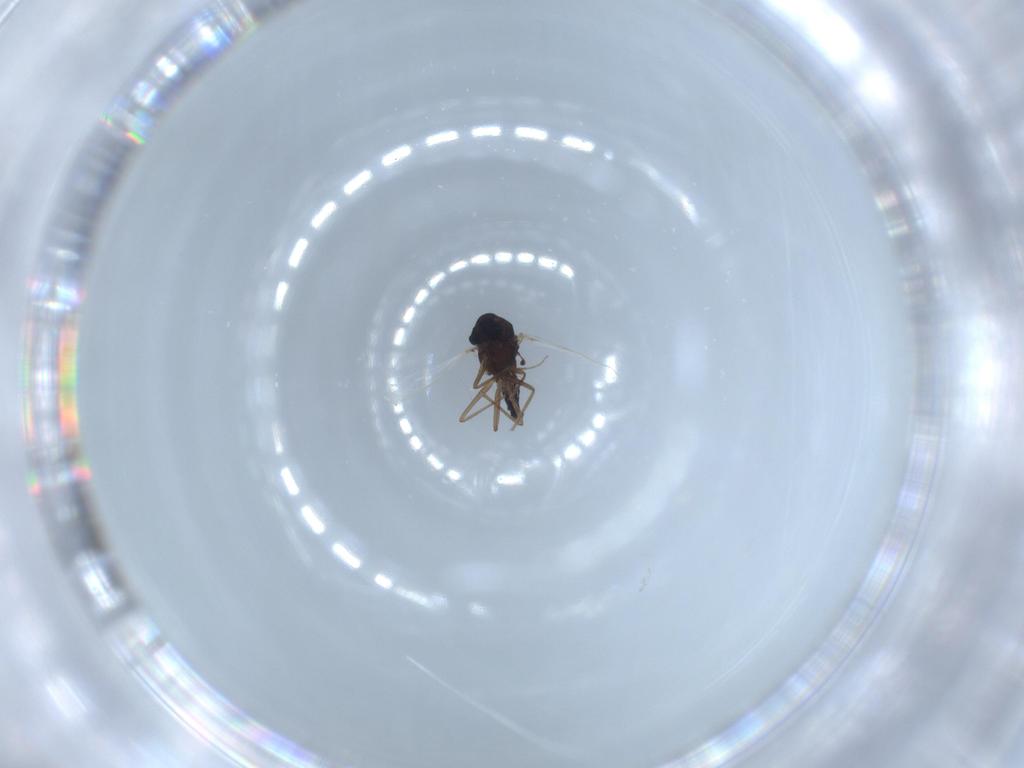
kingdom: Animalia
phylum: Arthropoda
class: Insecta
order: Diptera
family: Chironomidae
